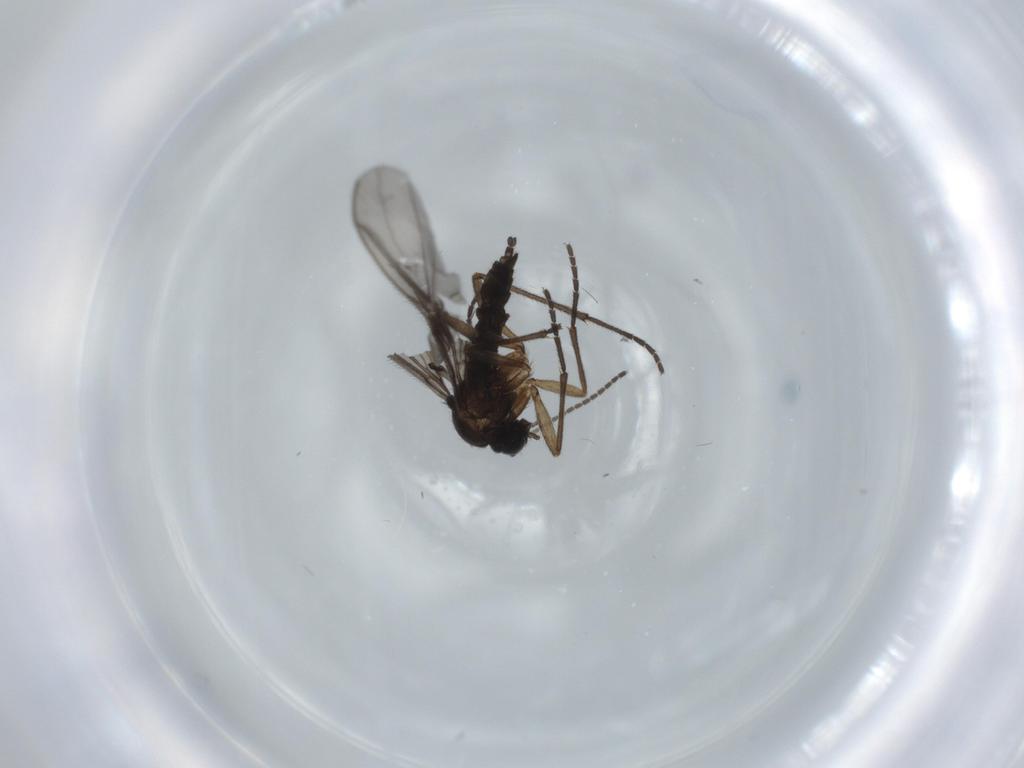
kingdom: Animalia
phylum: Arthropoda
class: Insecta
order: Diptera
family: Sciaridae
